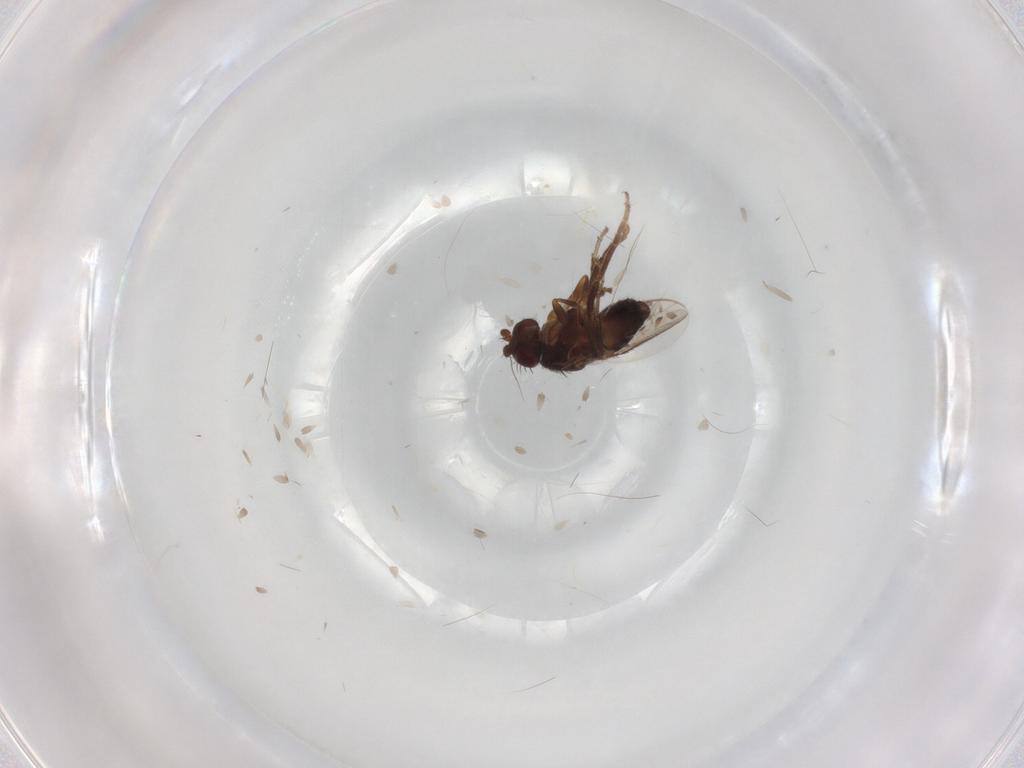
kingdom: Animalia
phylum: Arthropoda
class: Insecta
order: Diptera
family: Sphaeroceridae
